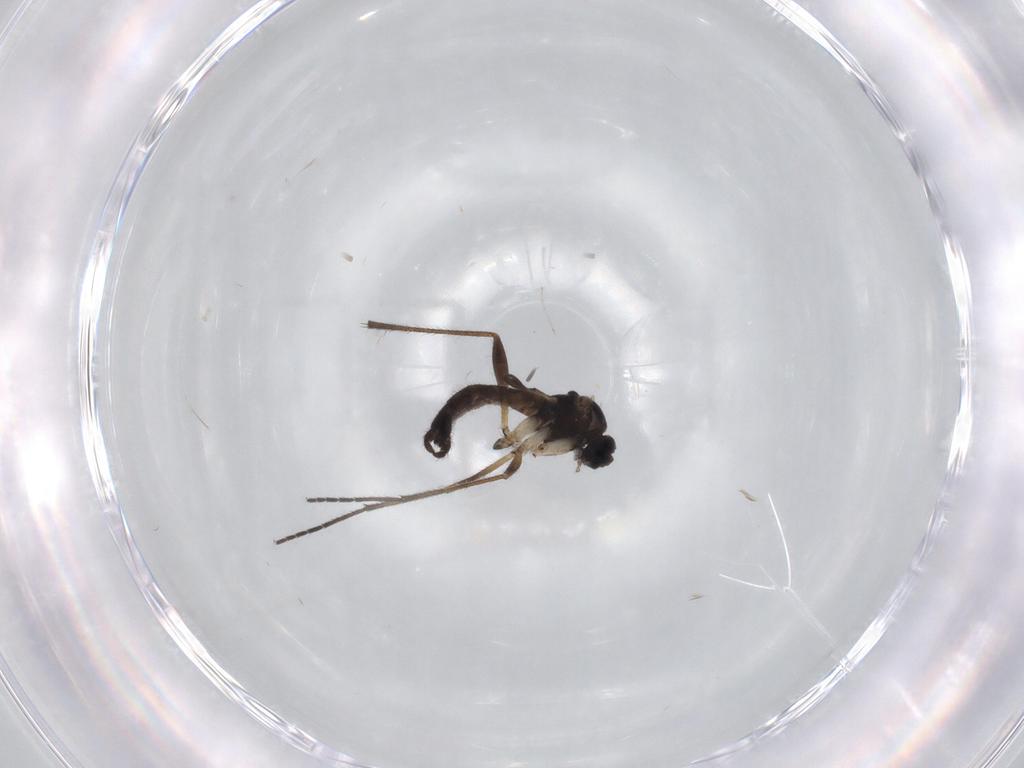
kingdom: Animalia
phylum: Arthropoda
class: Insecta
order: Diptera
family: Sciaridae
